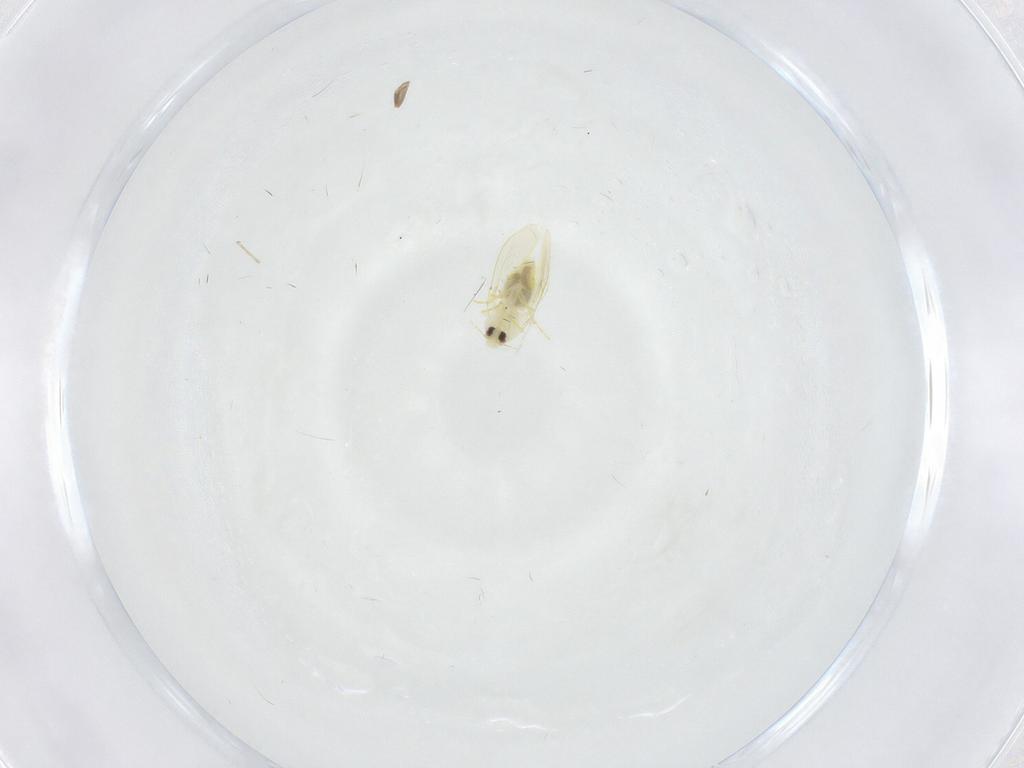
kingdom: Animalia
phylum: Arthropoda
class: Insecta
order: Hemiptera
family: Aleyrodidae
